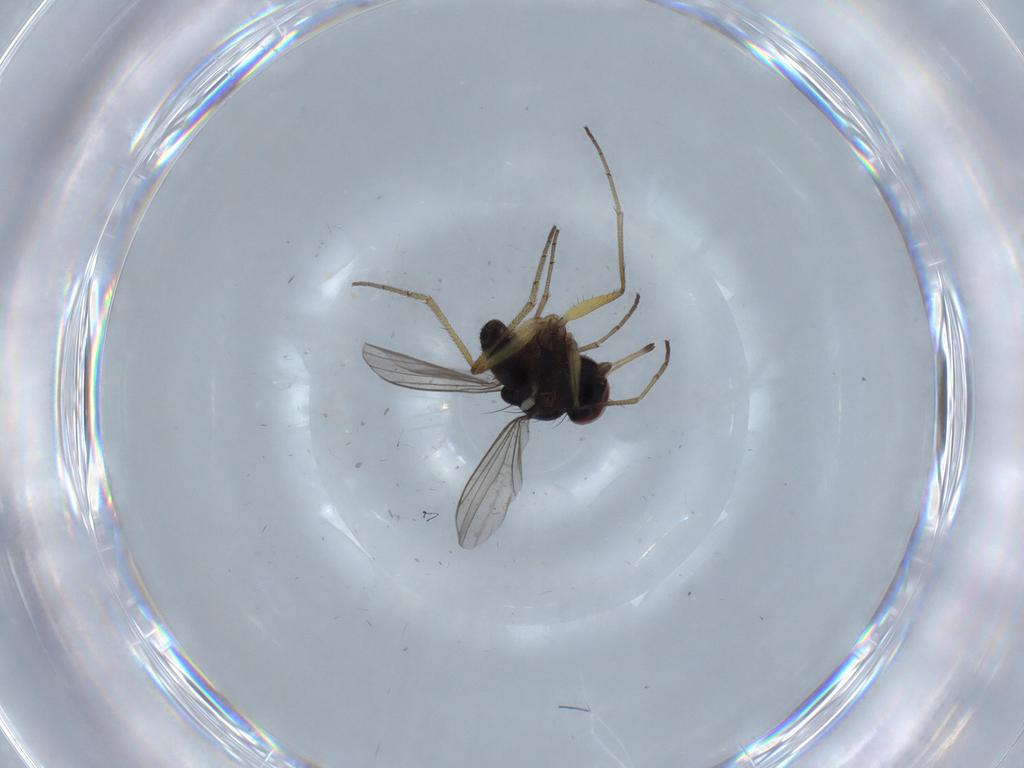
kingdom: Animalia
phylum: Arthropoda
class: Insecta
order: Diptera
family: Dolichopodidae
